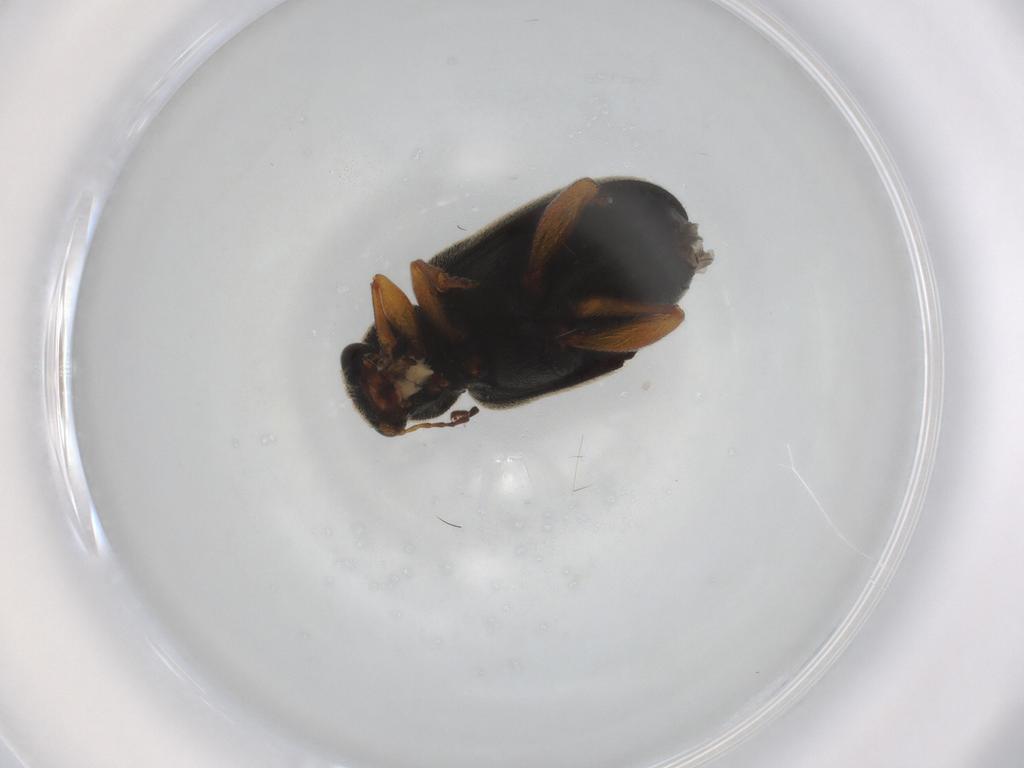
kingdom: Animalia
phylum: Arthropoda
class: Insecta
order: Coleoptera
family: Chrysomelidae
